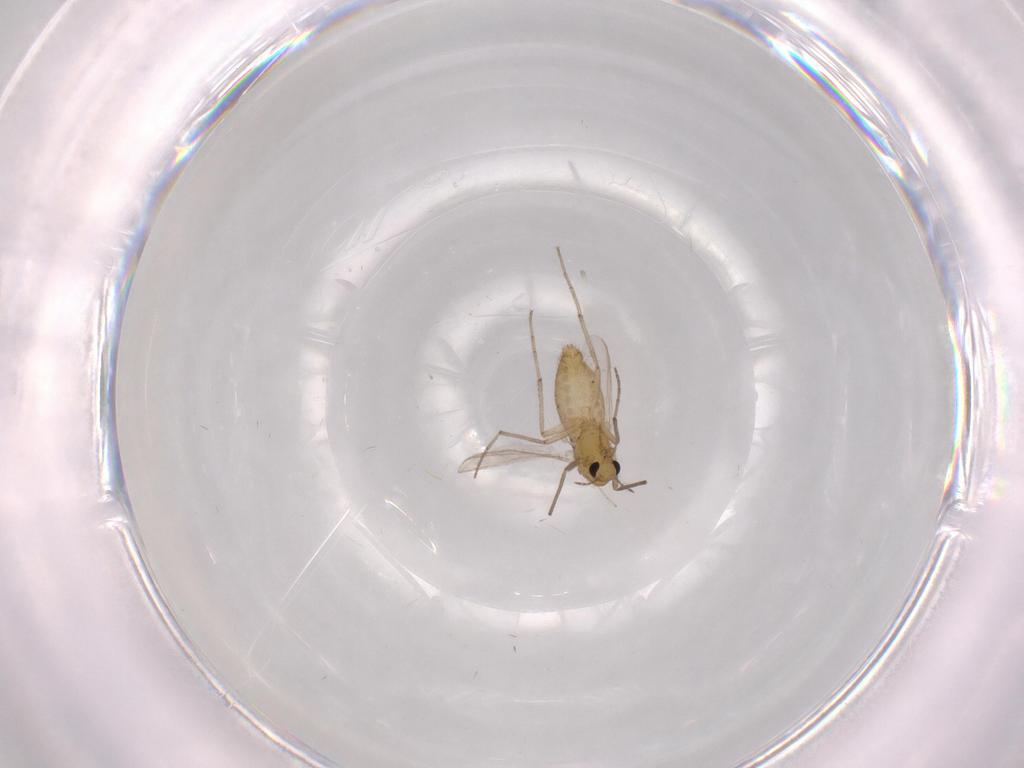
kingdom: Animalia
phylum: Arthropoda
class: Insecta
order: Diptera
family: Chironomidae
